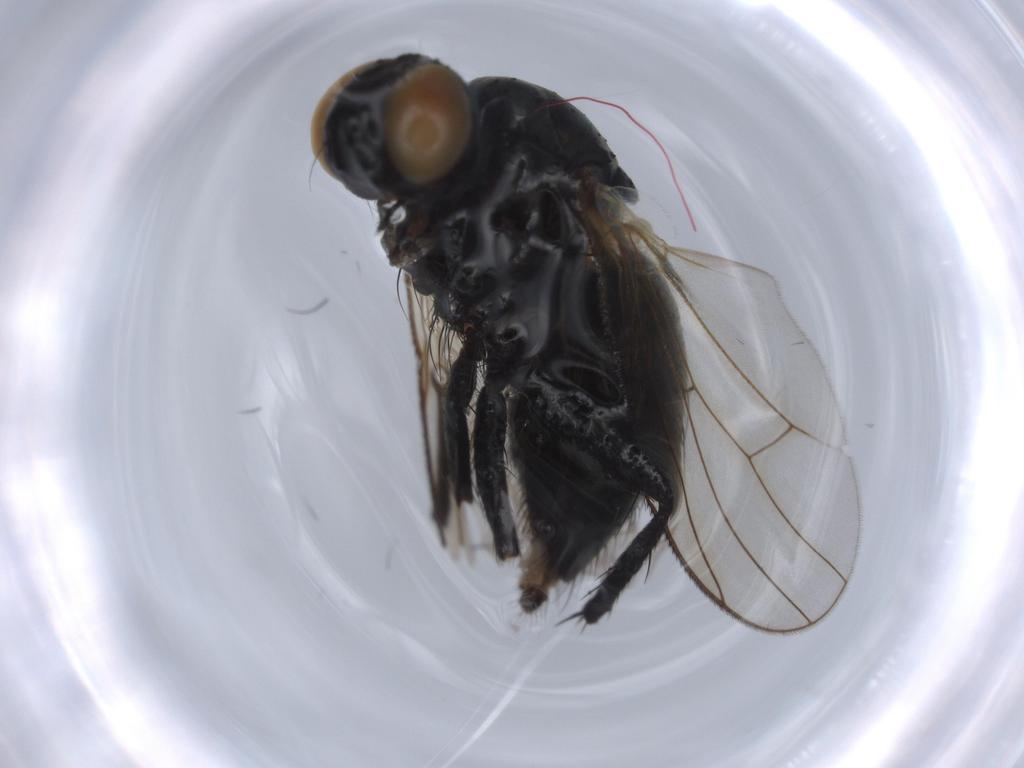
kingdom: Animalia
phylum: Arthropoda
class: Insecta
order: Diptera
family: Muscidae
